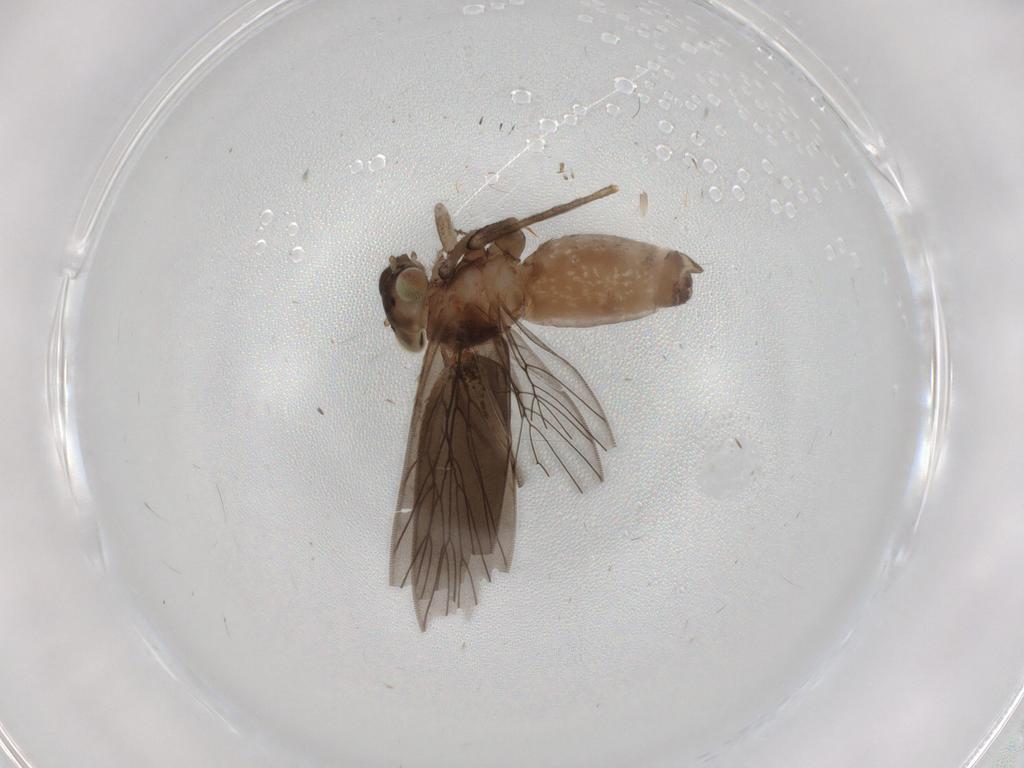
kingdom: Animalia
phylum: Arthropoda
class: Insecta
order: Psocodea
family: Lepidopsocidae
